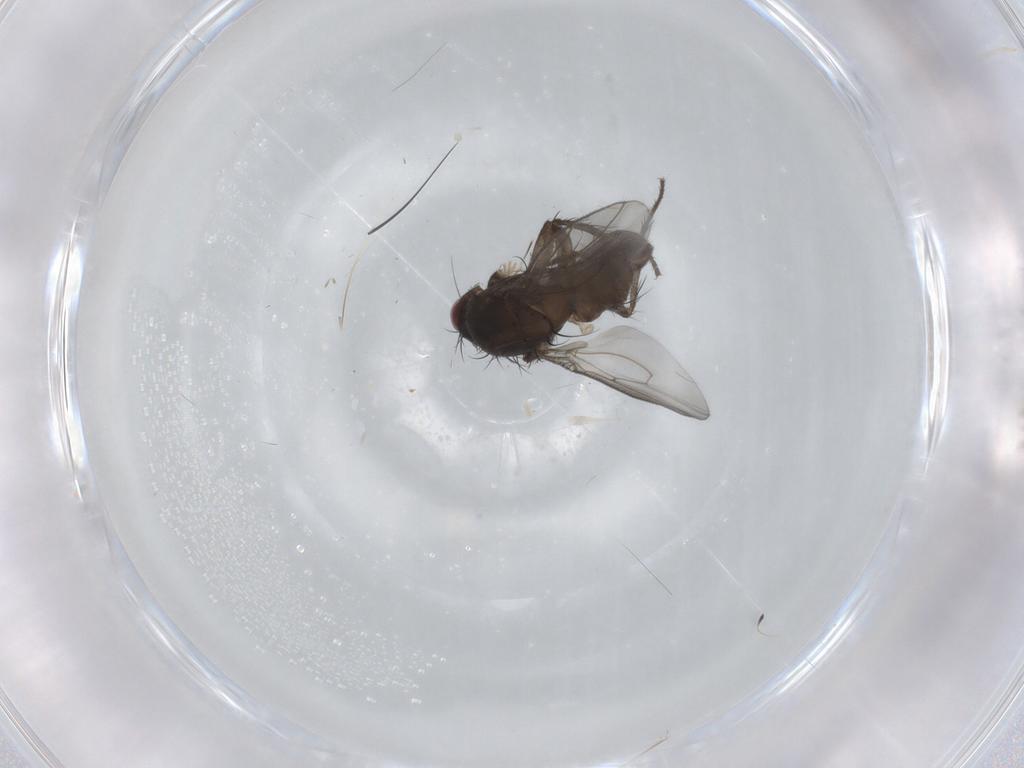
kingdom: Animalia
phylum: Arthropoda
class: Insecta
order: Diptera
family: Sphaeroceridae
